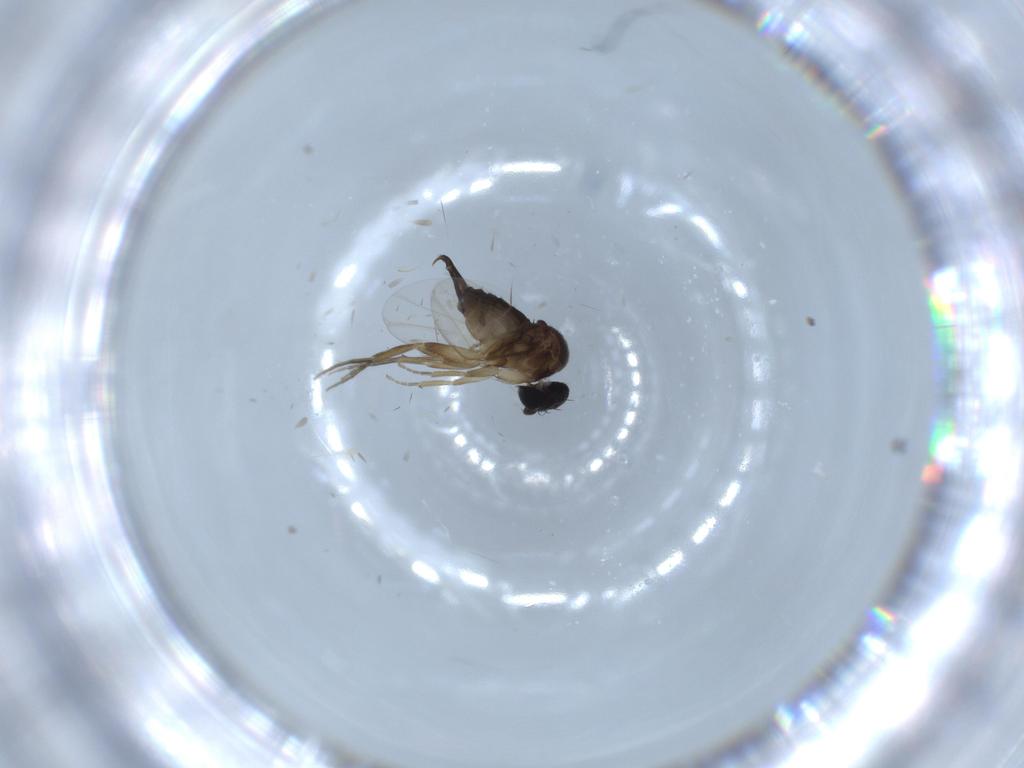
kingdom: Animalia
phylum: Arthropoda
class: Insecta
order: Diptera
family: Phoridae
